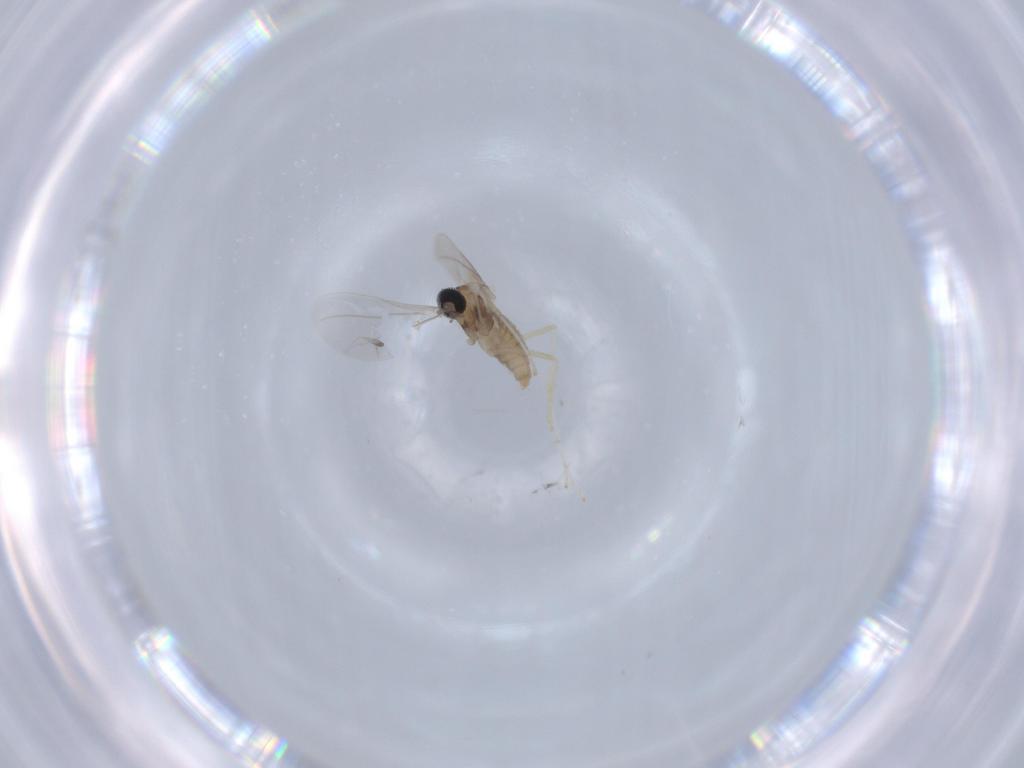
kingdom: Animalia
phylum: Arthropoda
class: Insecta
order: Diptera
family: Cecidomyiidae
